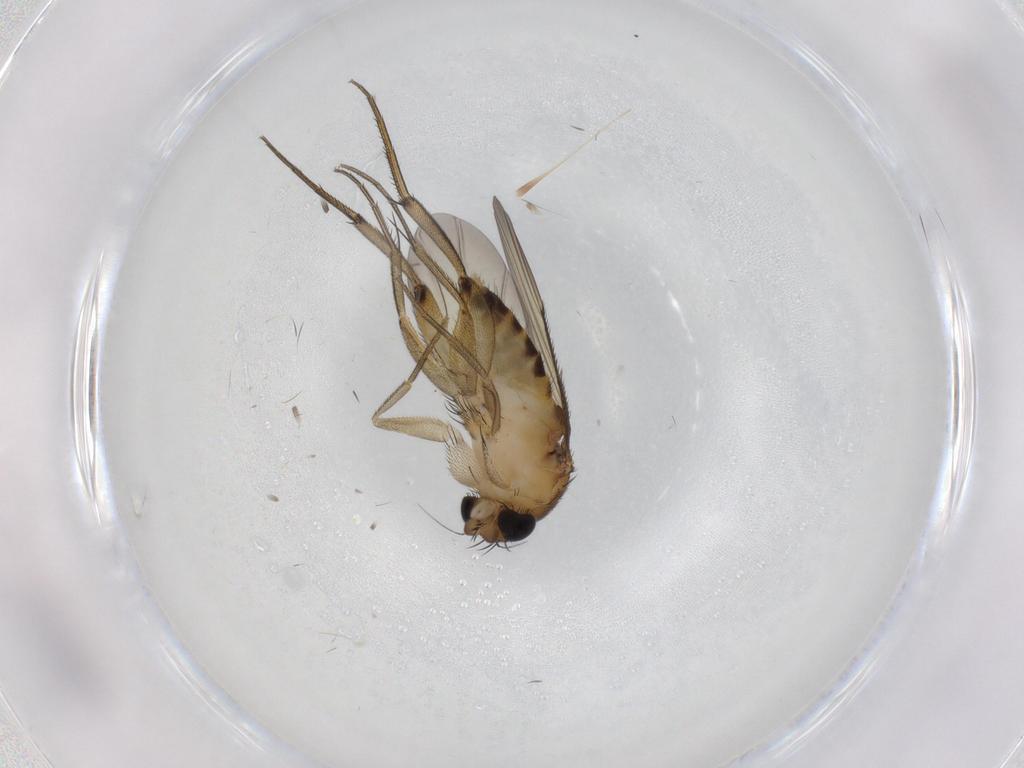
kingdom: Animalia
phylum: Arthropoda
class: Insecta
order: Diptera
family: Phoridae
